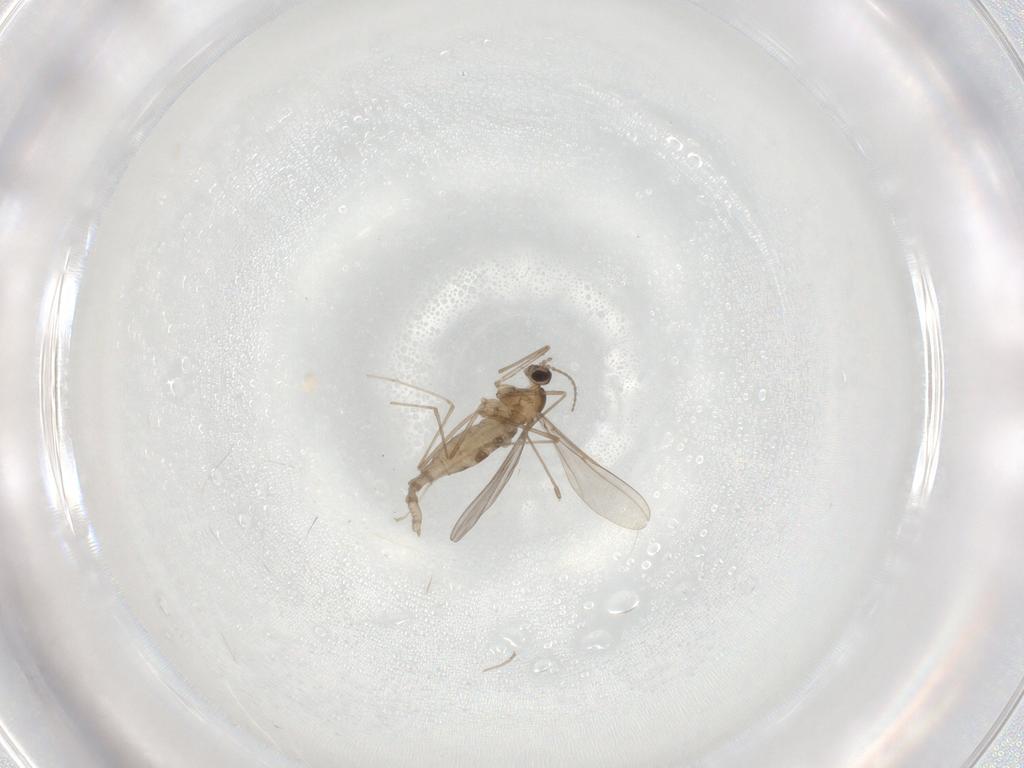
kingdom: Animalia
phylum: Arthropoda
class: Insecta
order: Diptera
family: Cecidomyiidae
